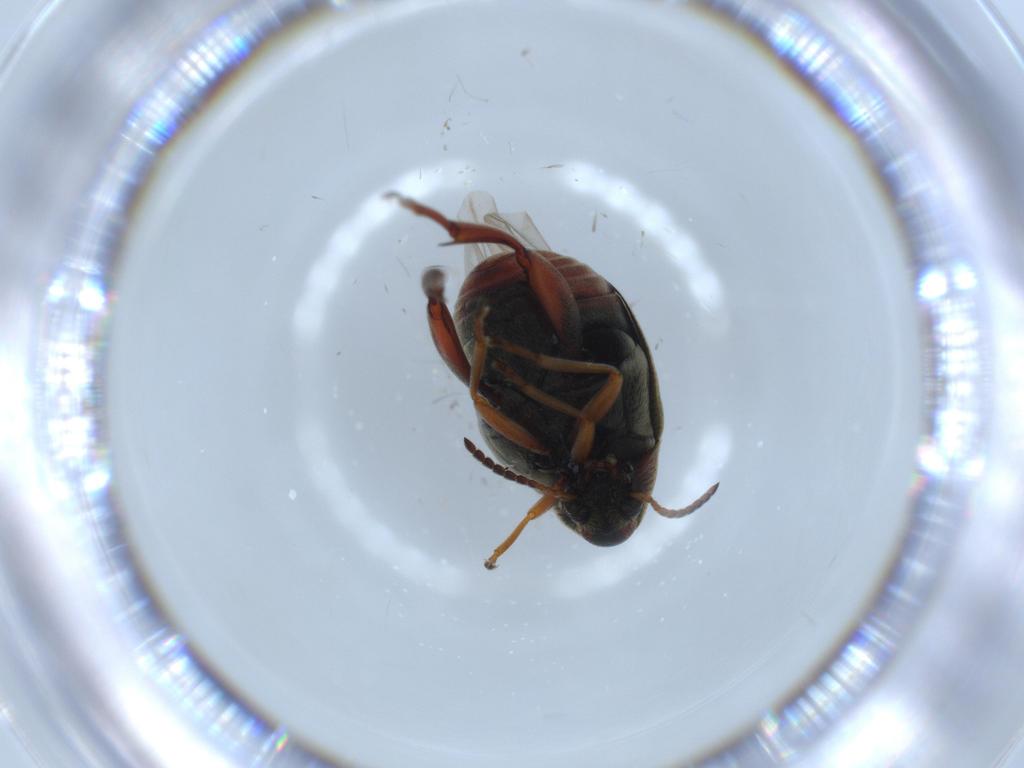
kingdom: Animalia
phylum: Arthropoda
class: Insecta
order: Coleoptera
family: Chrysomelidae
